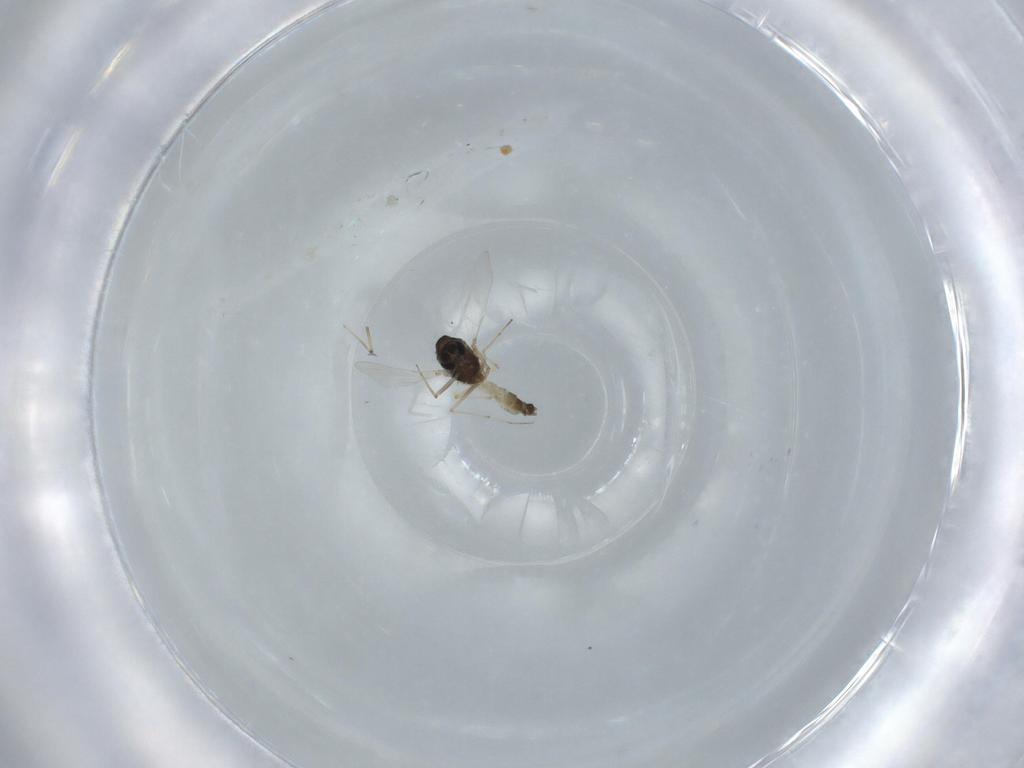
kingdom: Animalia
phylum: Arthropoda
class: Insecta
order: Diptera
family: Chironomidae
